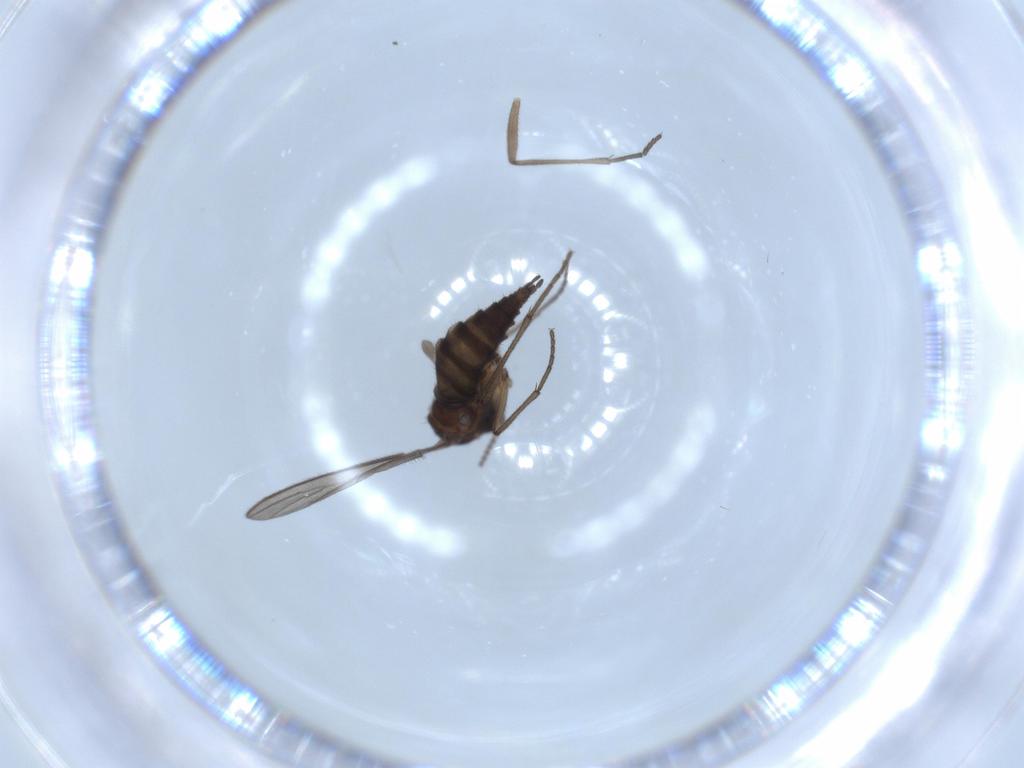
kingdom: Animalia
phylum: Arthropoda
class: Insecta
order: Diptera
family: Sciaridae
